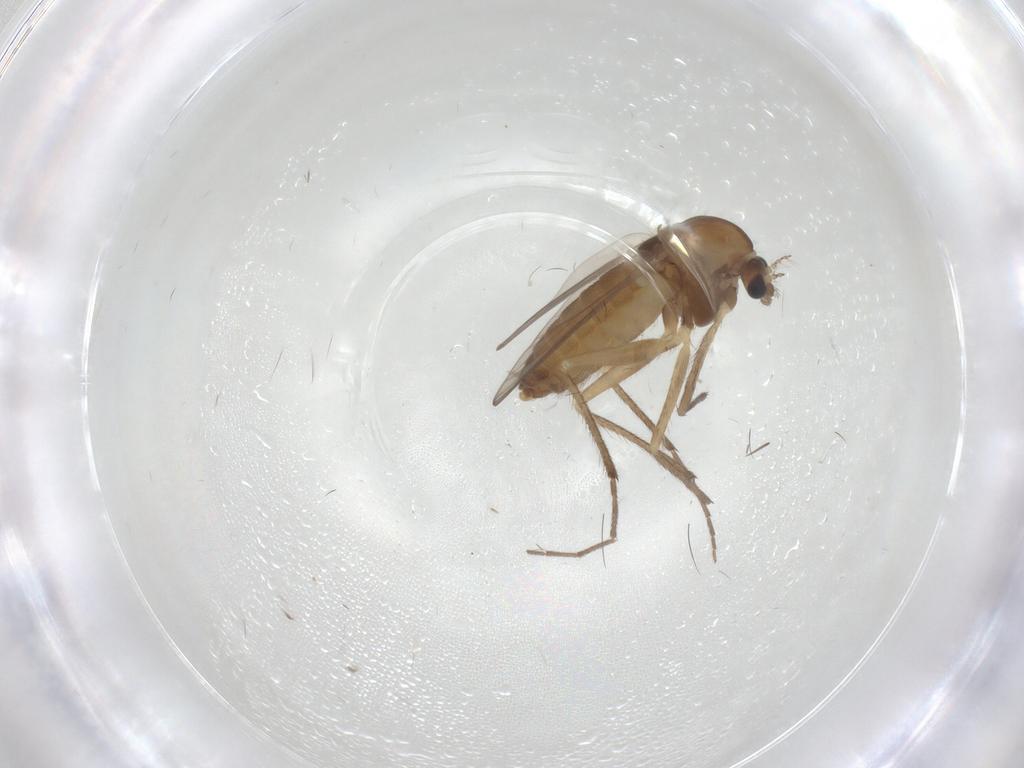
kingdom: Animalia
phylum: Arthropoda
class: Insecta
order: Diptera
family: Chironomidae
